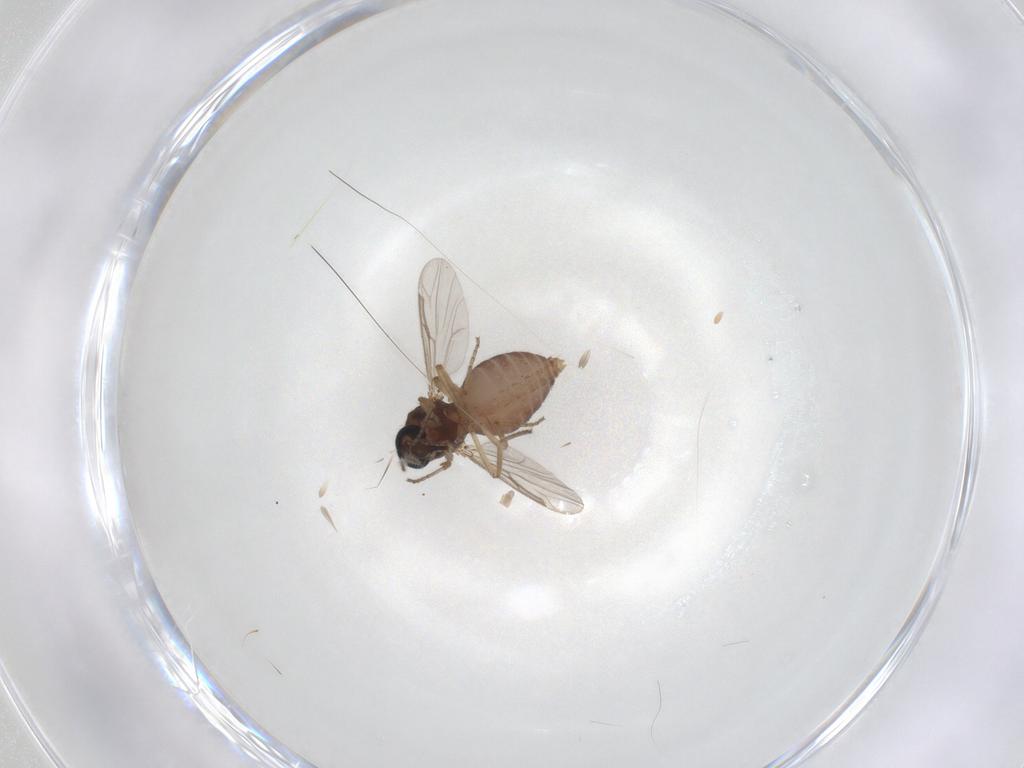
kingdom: Animalia
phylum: Arthropoda
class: Insecta
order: Diptera
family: Ceratopogonidae
